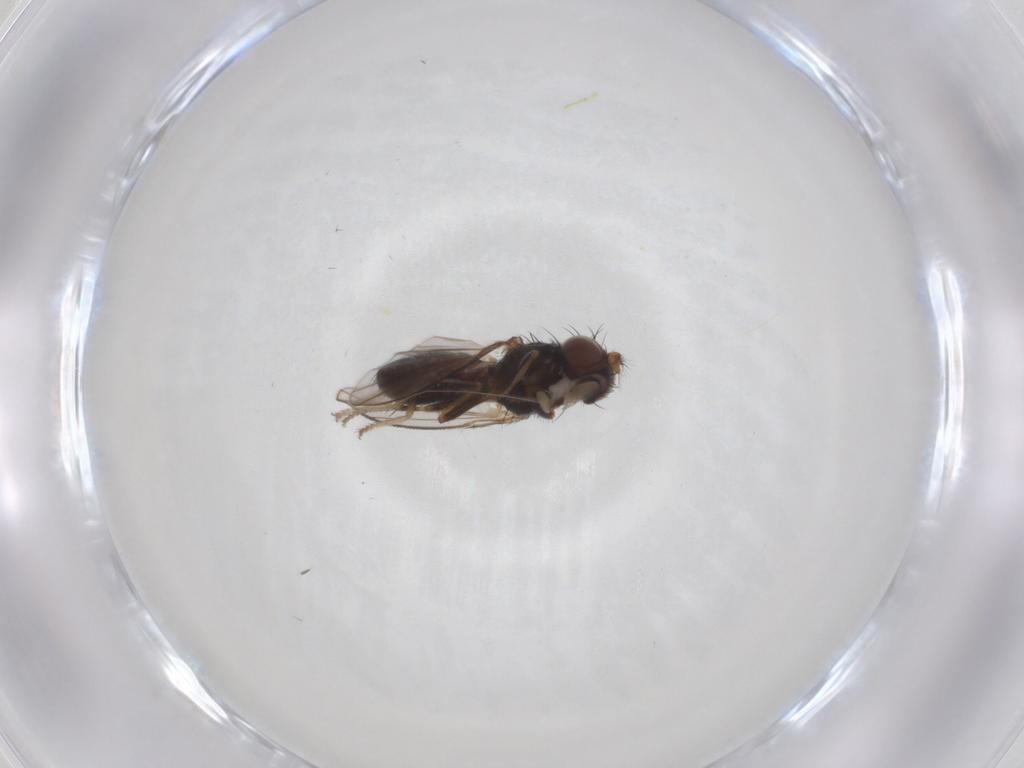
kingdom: Animalia
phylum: Arthropoda
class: Insecta
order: Diptera
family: Ephydridae
